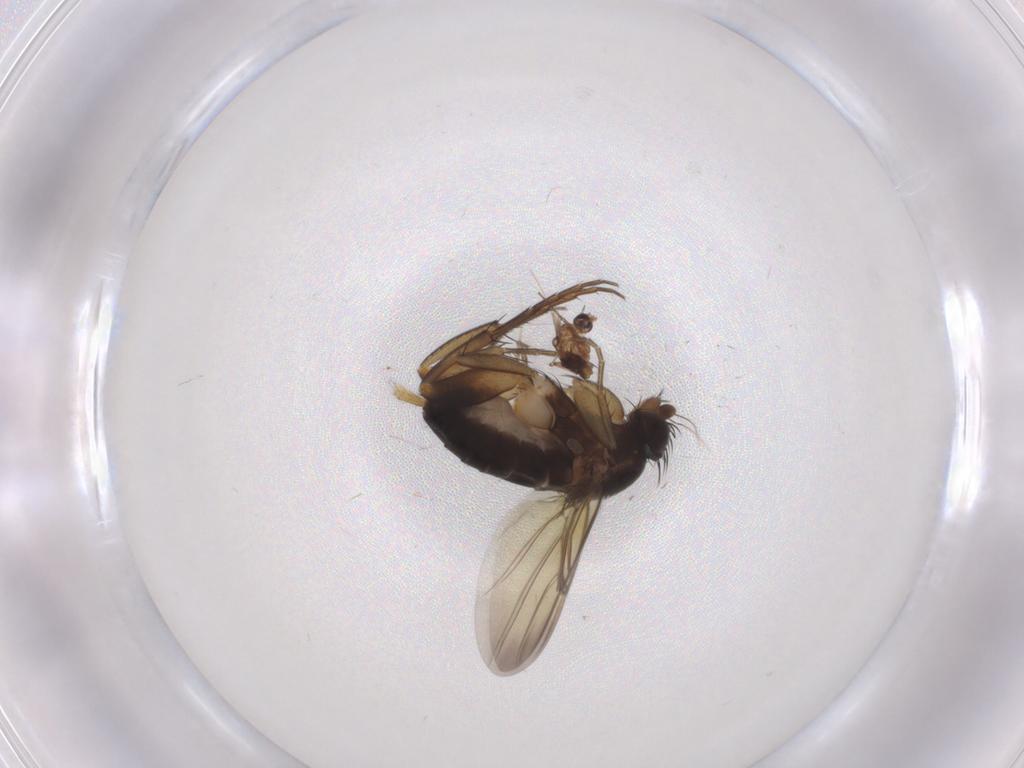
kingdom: Animalia
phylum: Arthropoda
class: Insecta
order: Diptera
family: Phoridae
